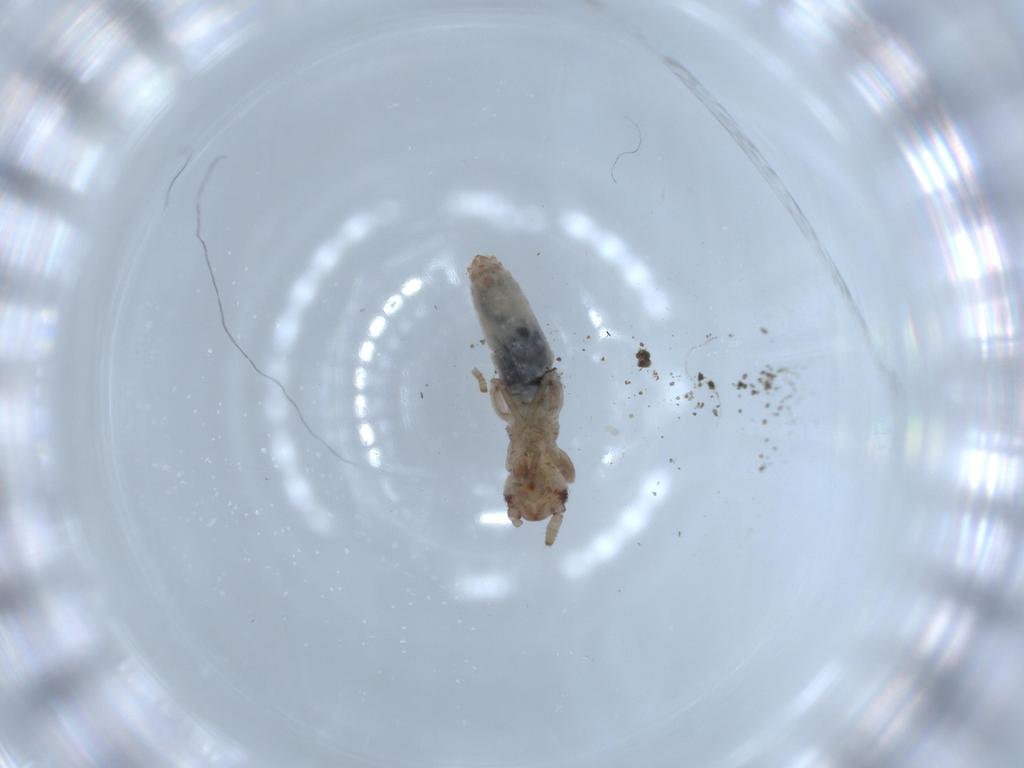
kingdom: Animalia
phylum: Arthropoda
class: Insecta
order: Orthoptera
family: Mogoplistidae
